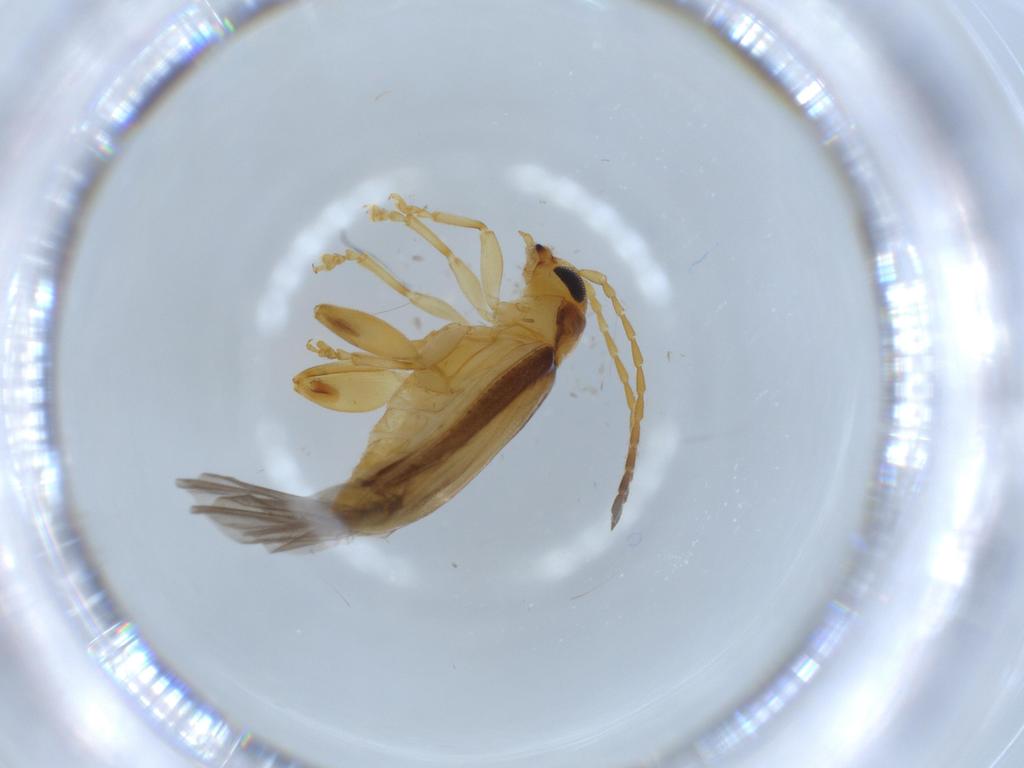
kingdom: Animalia
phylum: Arthropoda
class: Insecta
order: Coleoptera
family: Chrysomelidae
